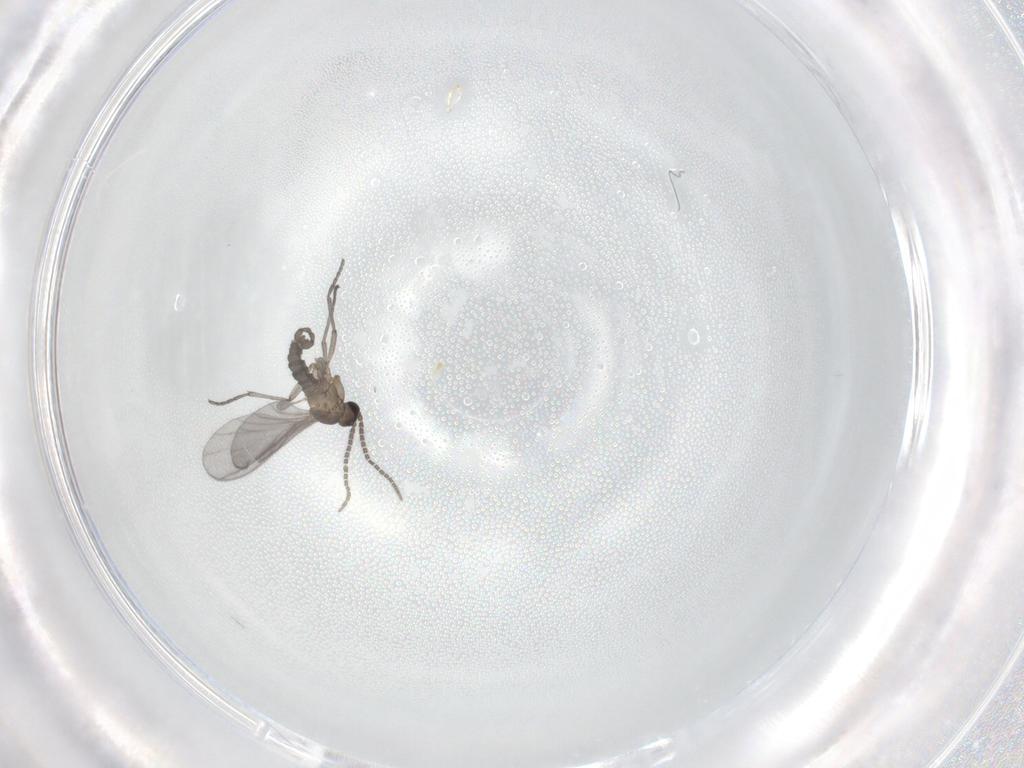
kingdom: Animalia
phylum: Arthropoda
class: Insecta
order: Diptera
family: Sciaridae
